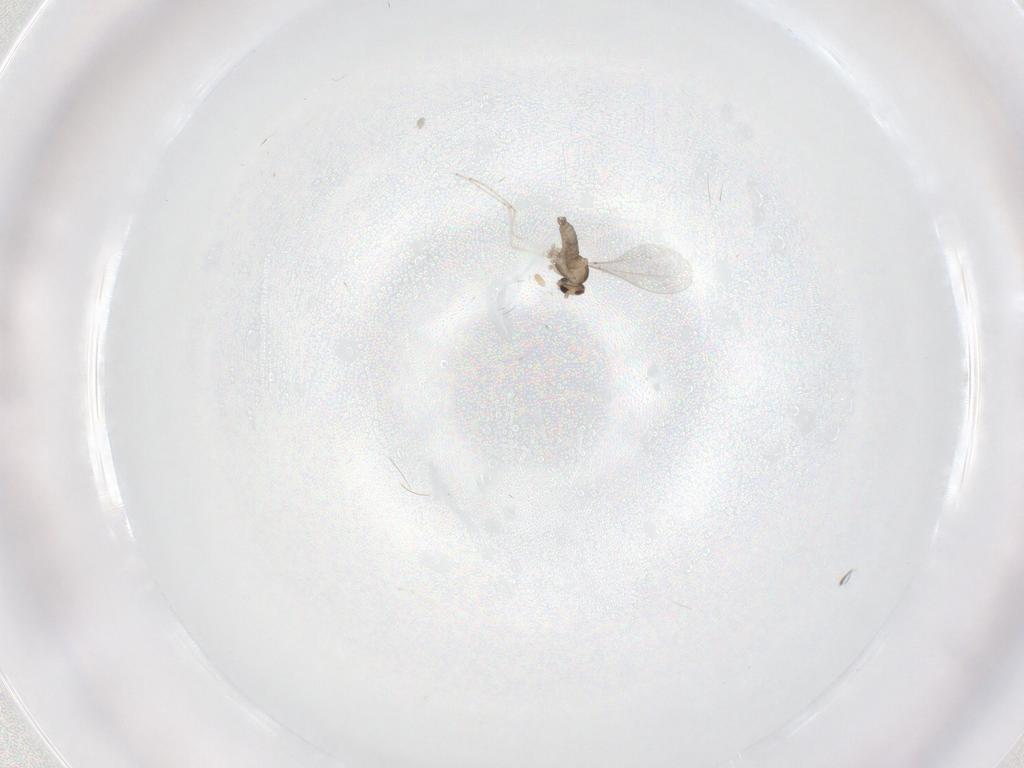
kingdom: Animalia
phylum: Arthropoda
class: Insecta
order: Diptera
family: Cecidomyiidae
